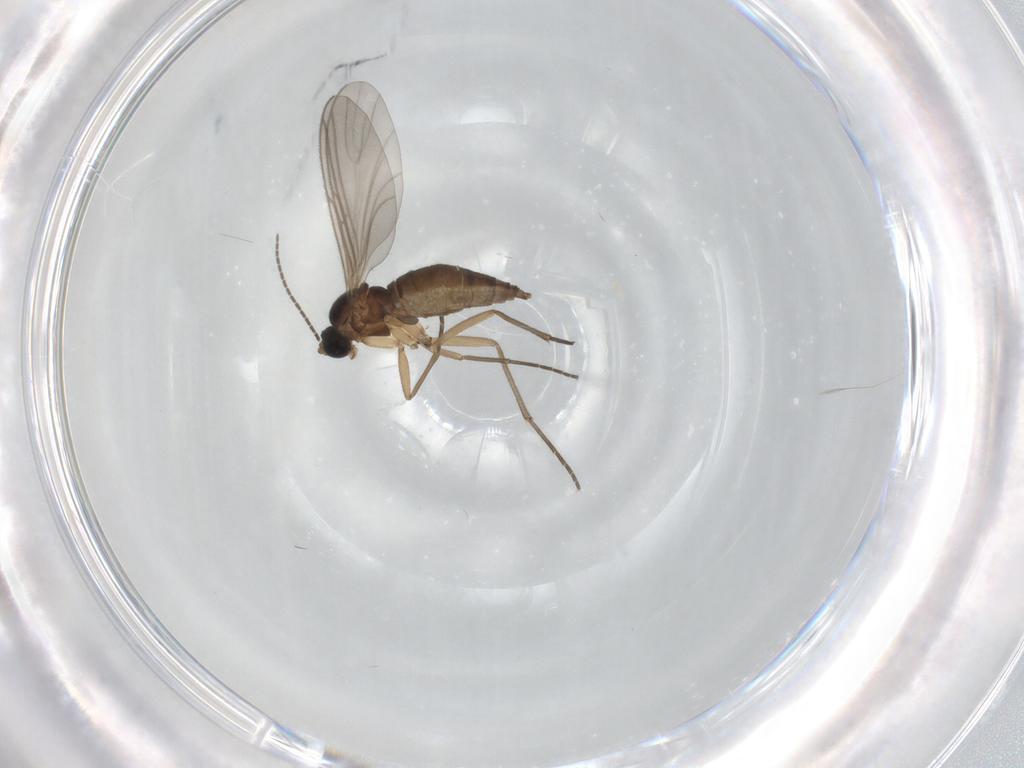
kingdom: Animalia
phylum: Arthropoda
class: Insecta
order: Diptera
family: Sciaridae
